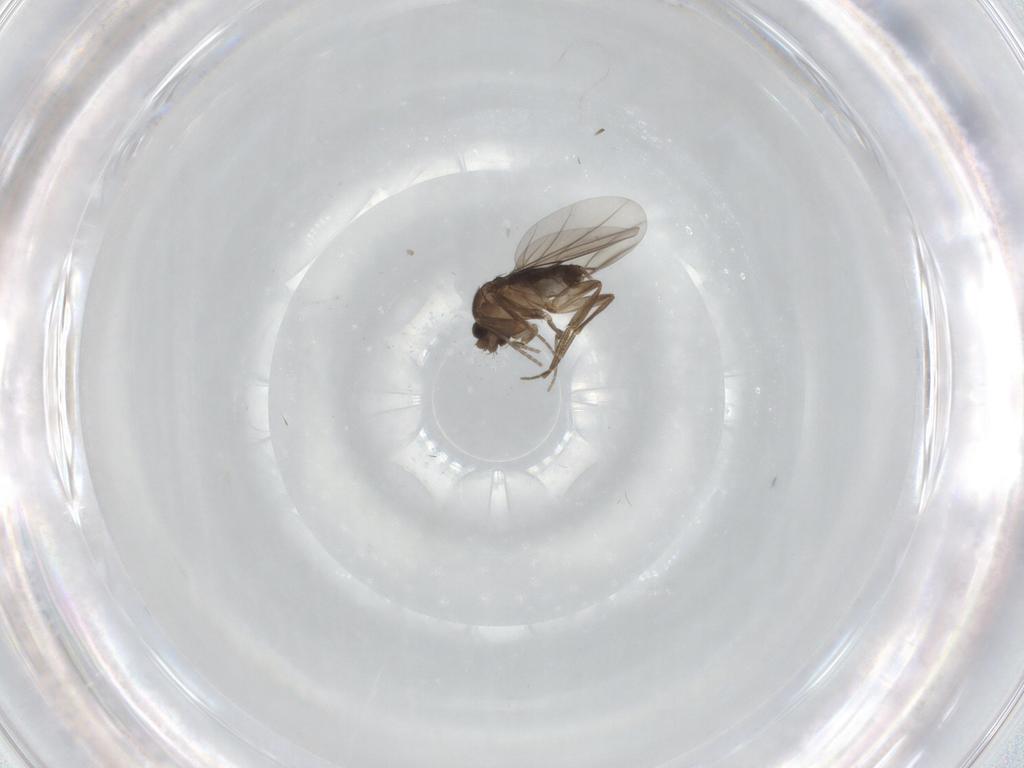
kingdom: Animalia
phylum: Arthropoda
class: Insecta
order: Diptera
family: Phoridae
